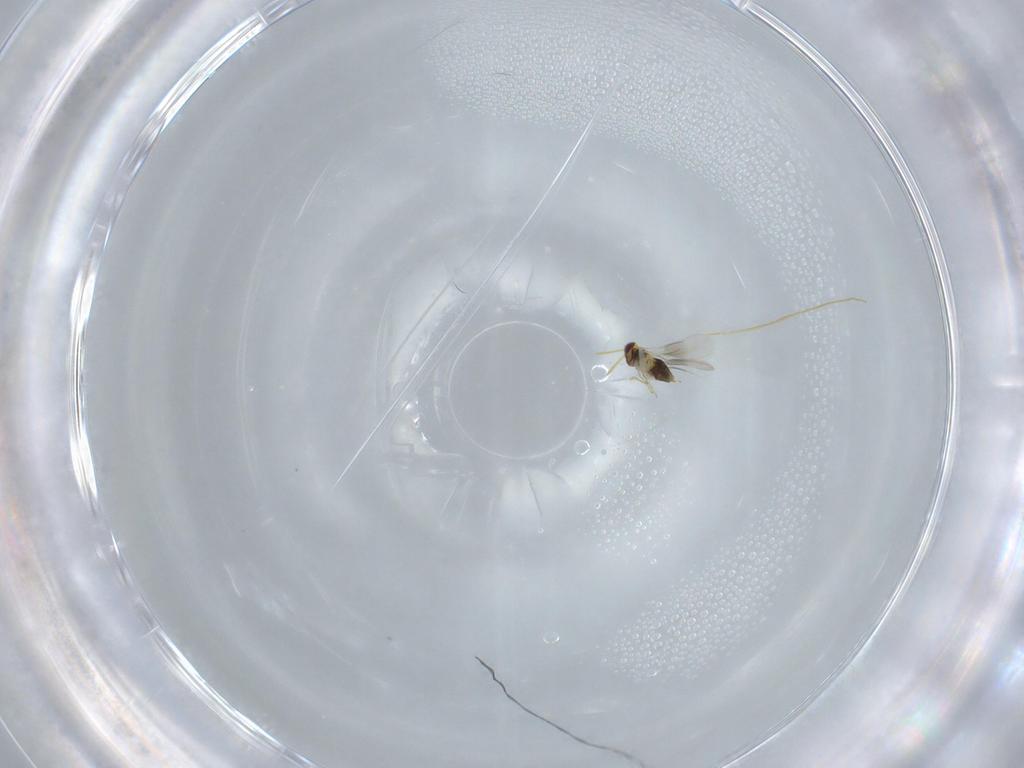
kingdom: Animalia
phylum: Arthropoda
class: Insecta
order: Hymenoptera
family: Aphelinidae
